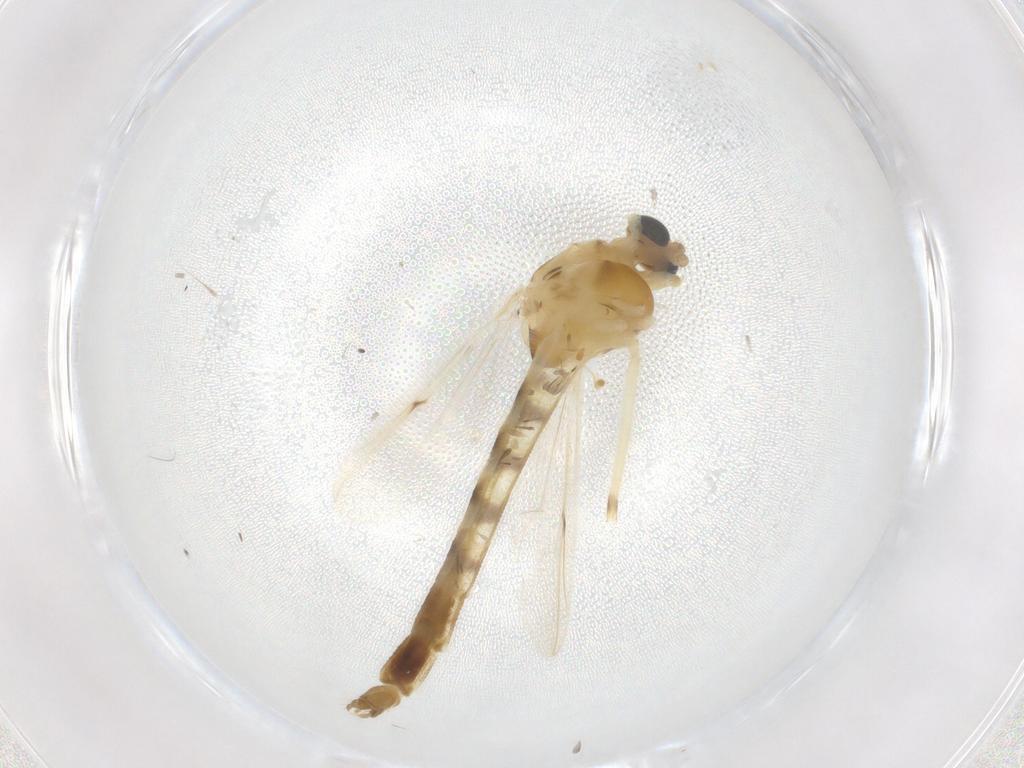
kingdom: Animalia
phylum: Arthropoda
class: Insecta
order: Diptera
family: Chironomidae
